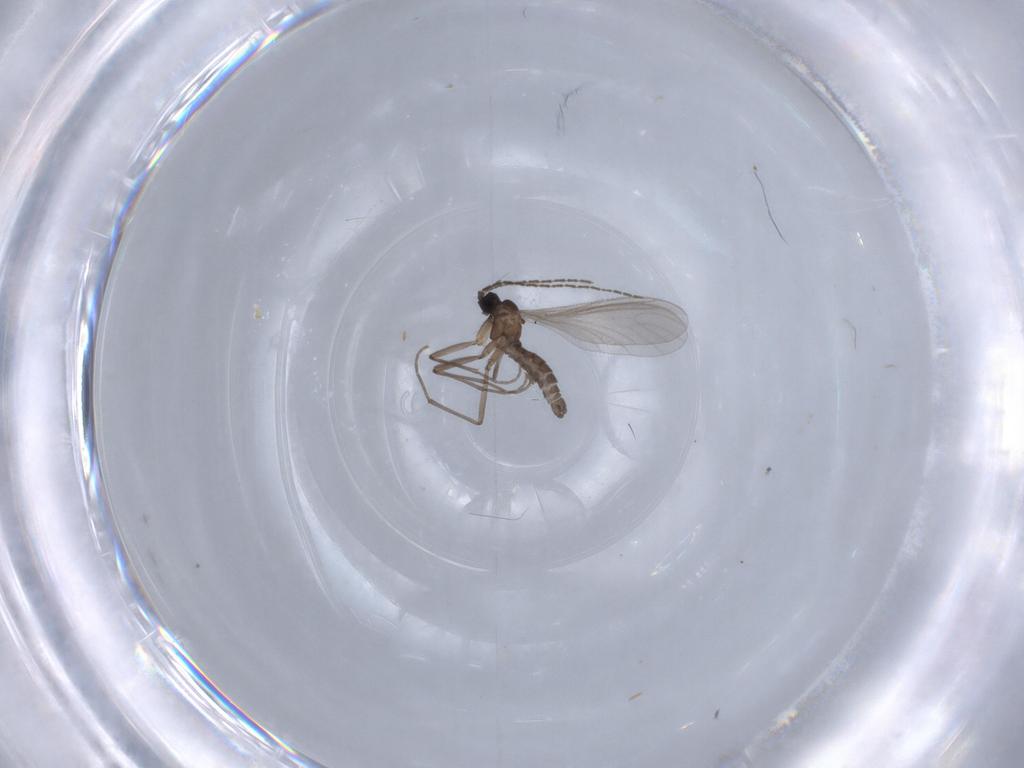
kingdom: Animalia
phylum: Arthropoda
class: Insecta
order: Diptera
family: Sciaridae
